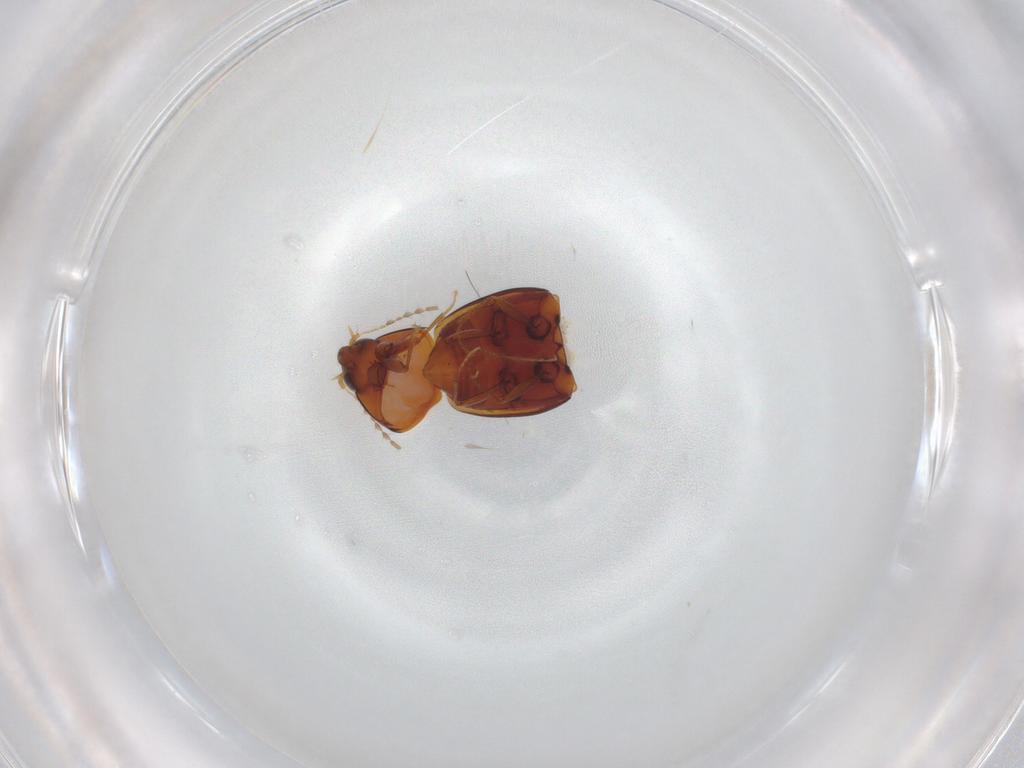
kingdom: Animalia
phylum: Arthropoda
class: Insecta
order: Coleoptera
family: Staphylinidae
